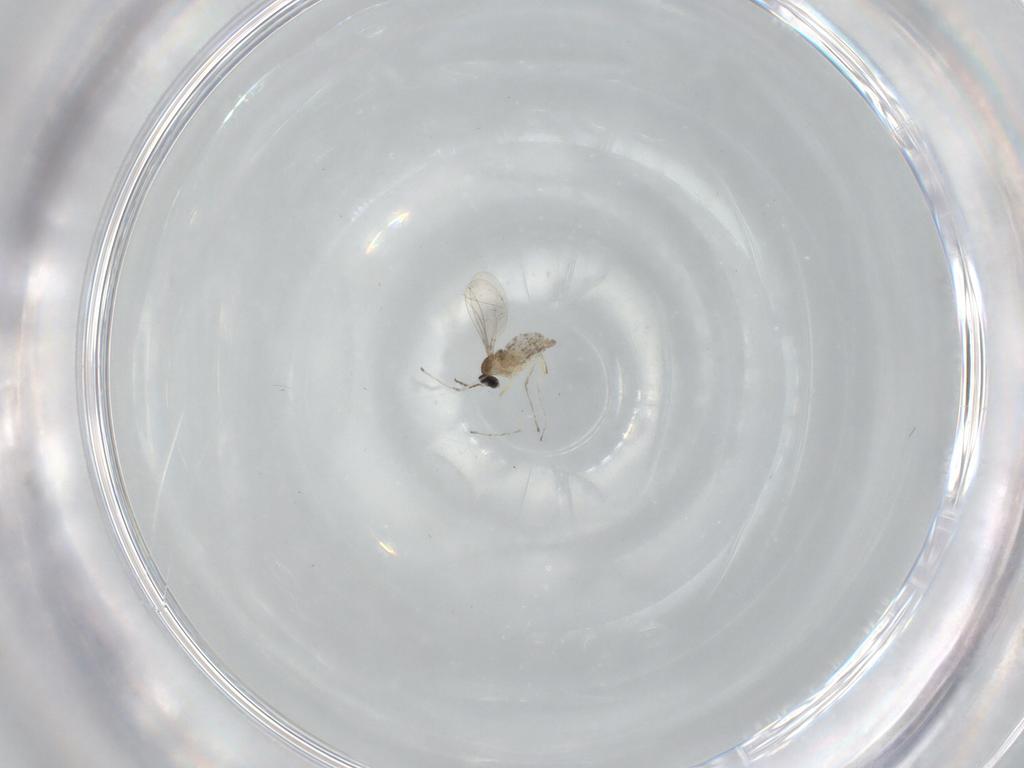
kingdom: Animalia
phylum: Arthropoda
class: Insecta
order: Diptera
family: Cecidomyiidae
